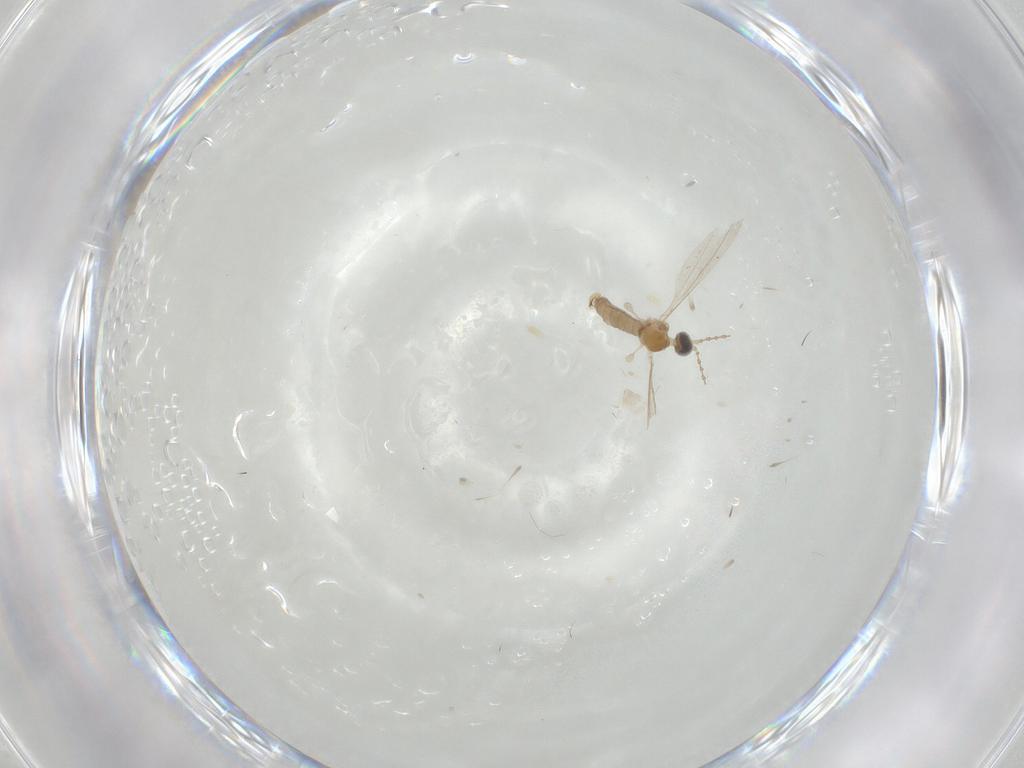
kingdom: Animalia
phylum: Arthropoda
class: Insecta
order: Diptera
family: Cecidomyiidae
